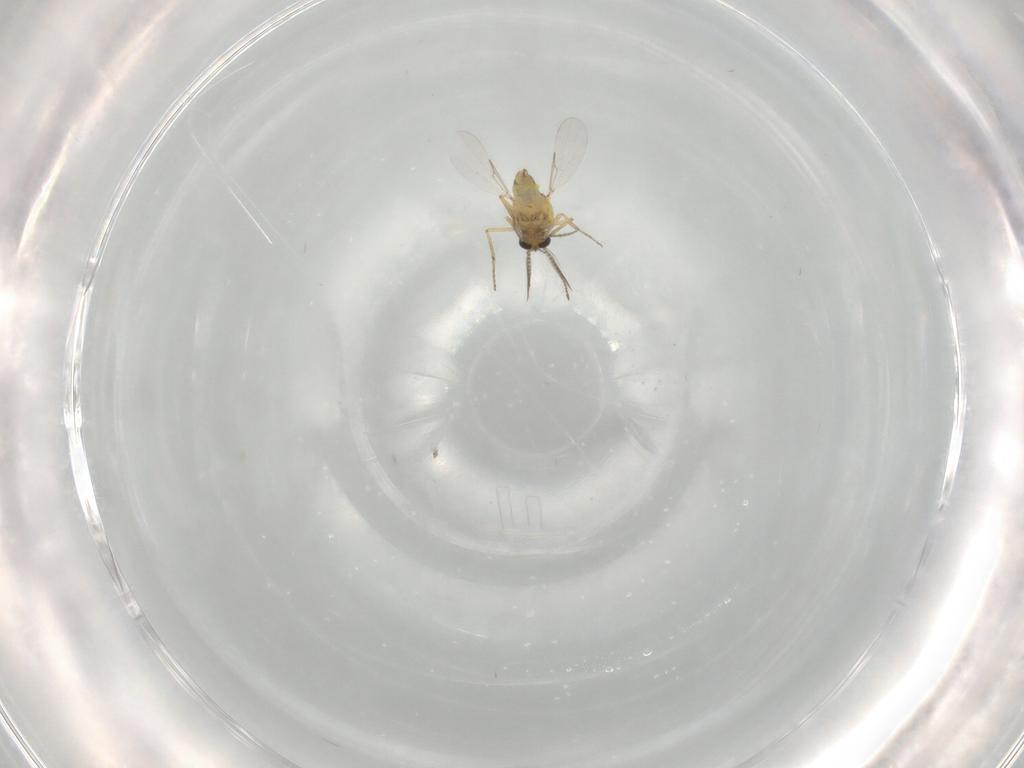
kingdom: Animalia
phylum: Arthropoda
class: Insecta
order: Diptera
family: Ceratopogonidae
